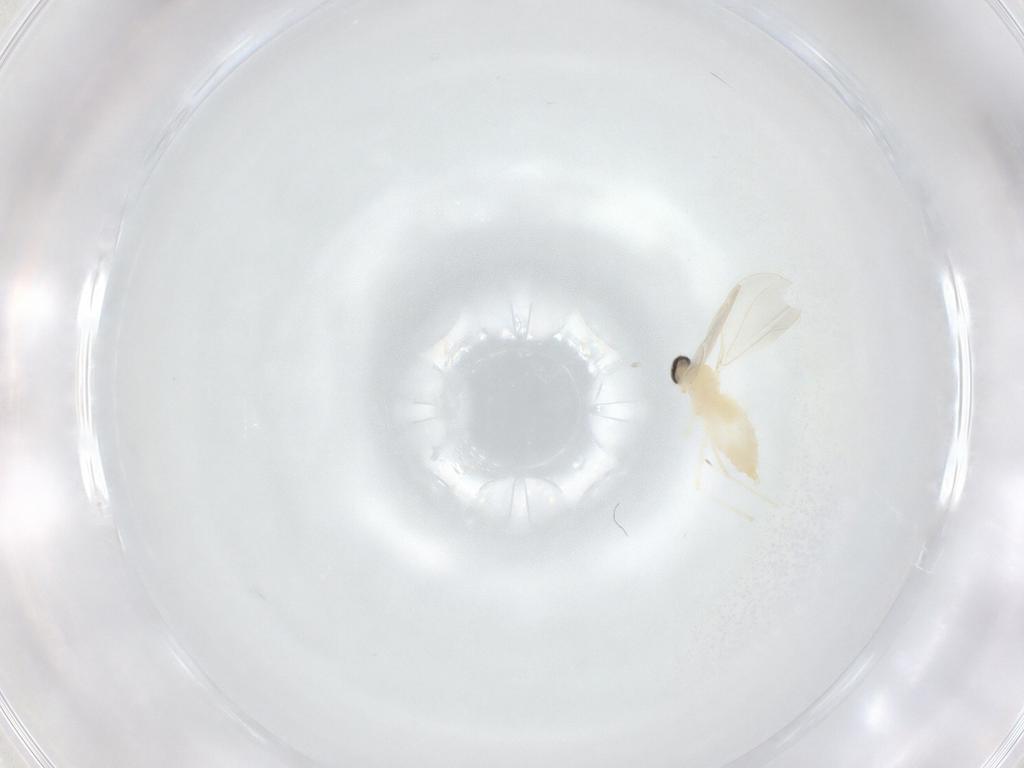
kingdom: Animalia
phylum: Arthropoda
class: Insecta
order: Diptera
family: Cecidomyiidae
